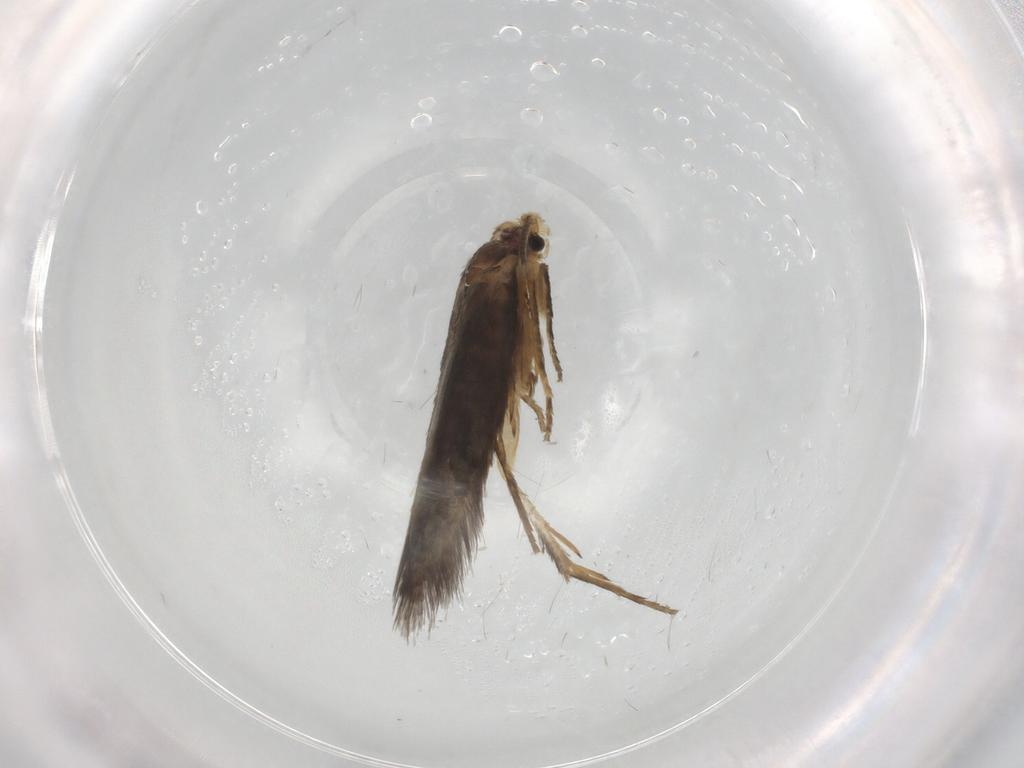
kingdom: Animalia
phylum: Arthropoda
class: Insecta
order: Lepidoptera
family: Nepticulidae
